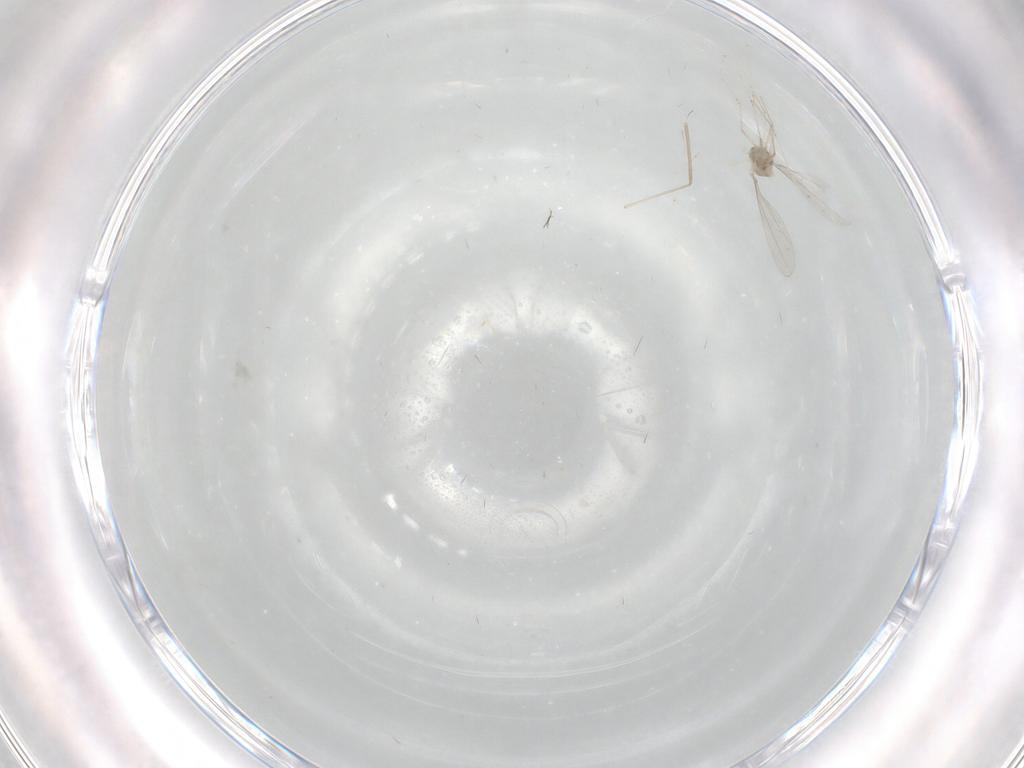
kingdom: Animalia
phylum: Arthropoda
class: Insecta
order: Diptera
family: Cecidomyiidae
